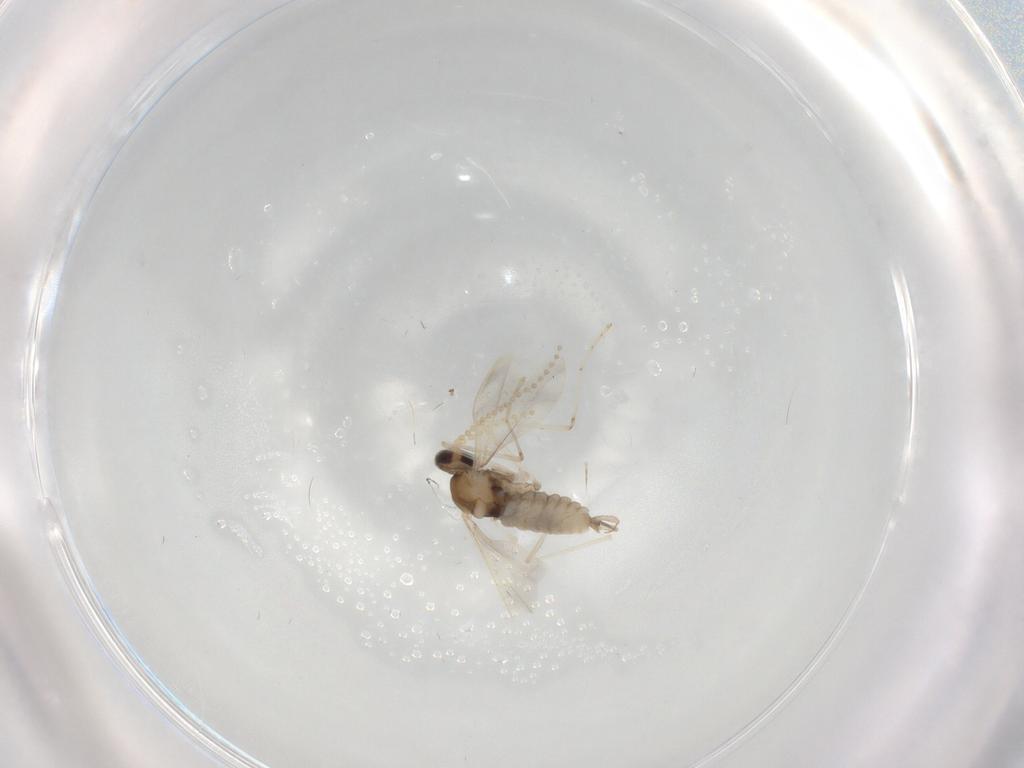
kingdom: Animalia
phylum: Arthropoda
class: Insecta
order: Diptera
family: Cecidomyiidae
